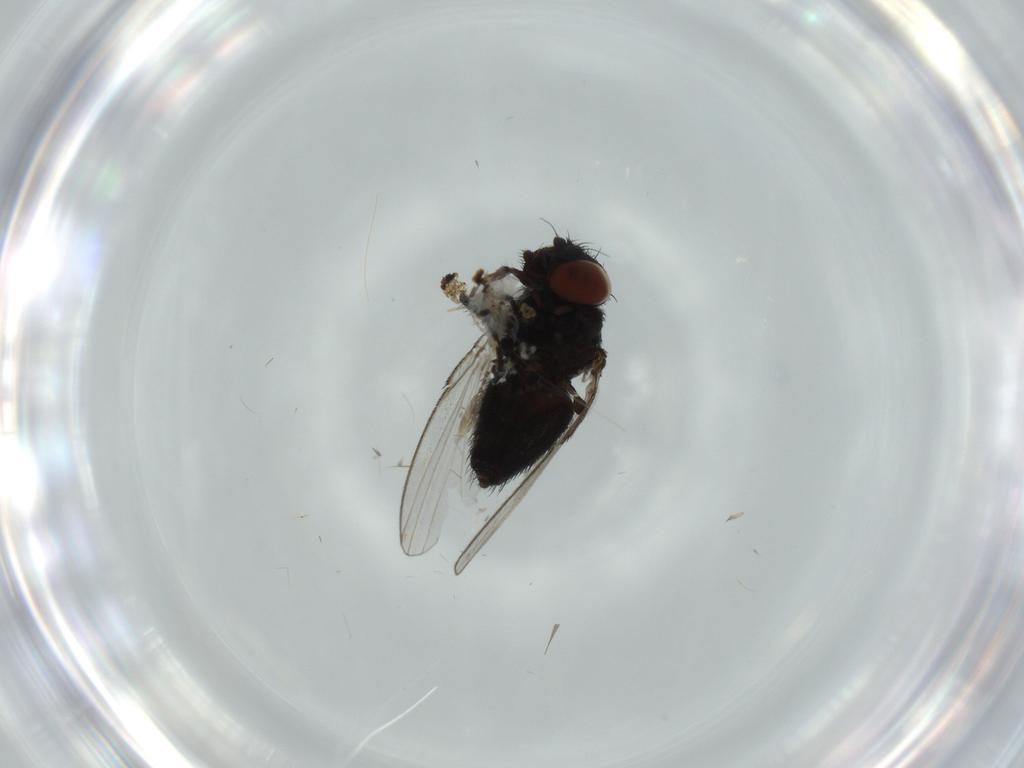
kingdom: Animalia
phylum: Arthropoda
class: Insecta
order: Diptera
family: Cecidomyiidae
